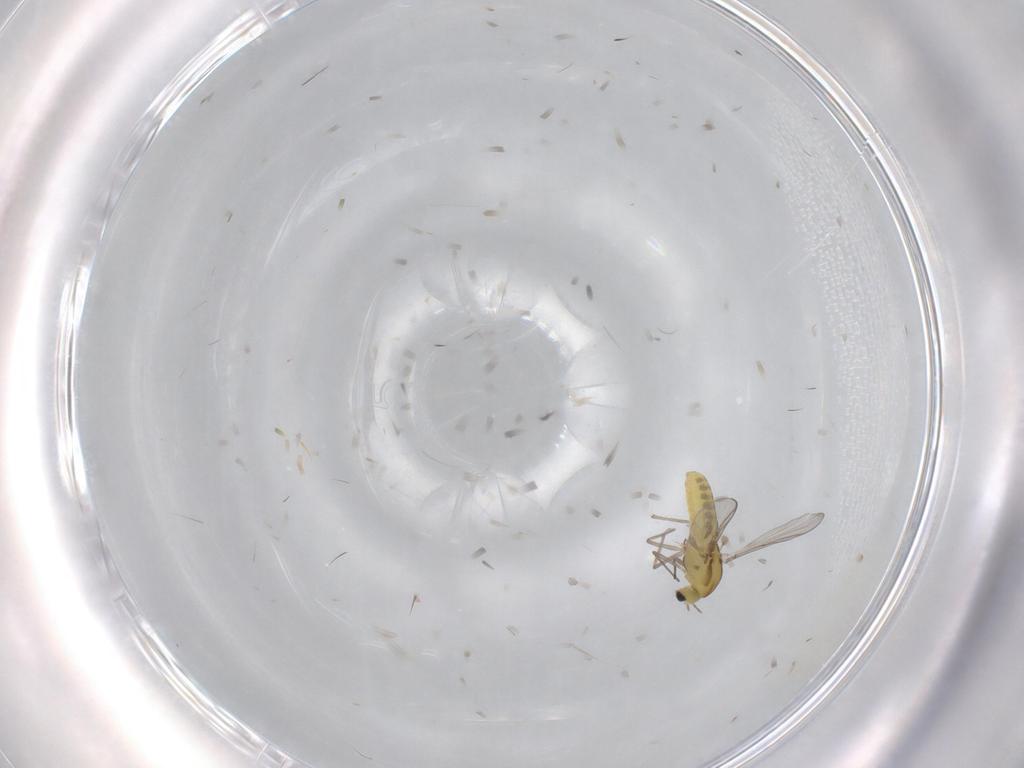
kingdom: Animalia
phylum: Arthropoda
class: Insecta
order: Diptera
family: Chironomidae
